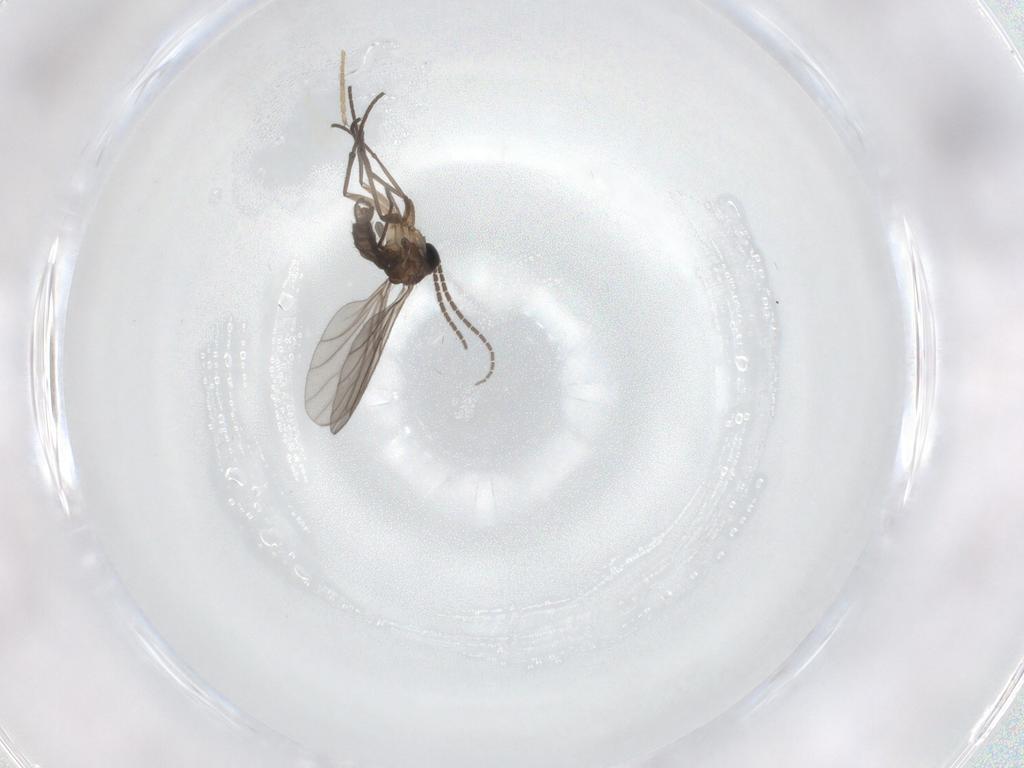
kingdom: Animalia
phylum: Arthropoda
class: Insecta
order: Diptera
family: Sciaridae
